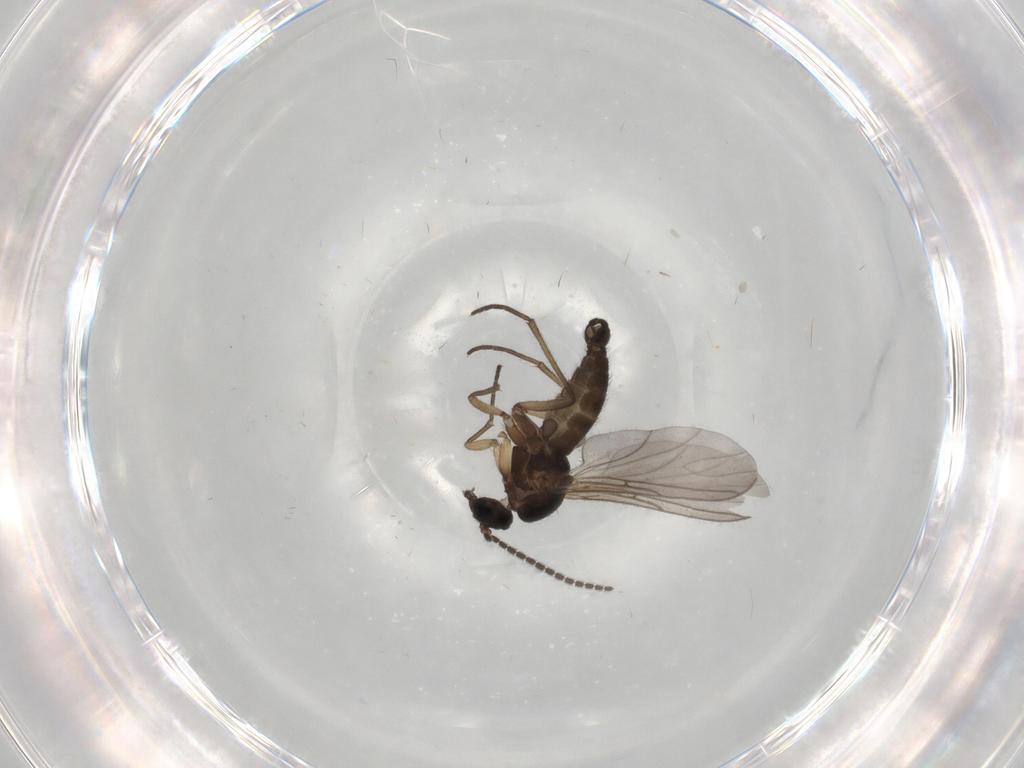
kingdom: Animalia
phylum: Arthropoda
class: Insecta
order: Diptera
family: Sciaridae
